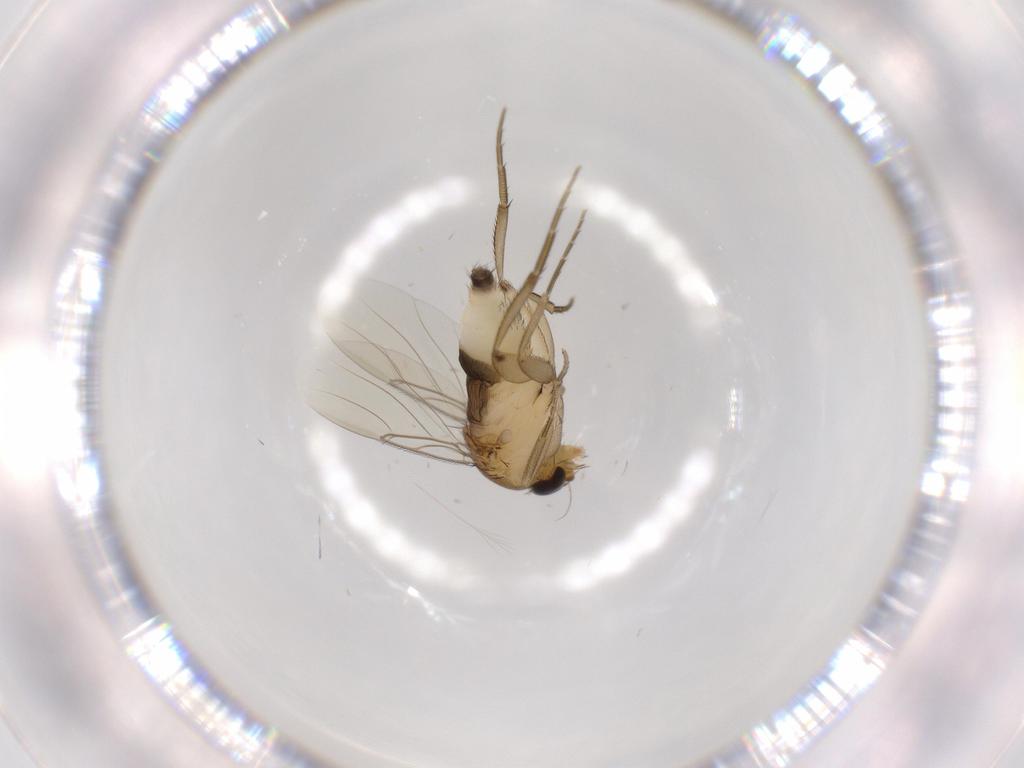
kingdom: Animalia
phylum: Arthropoda
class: Insecta
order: Diptera
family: Phoridae
